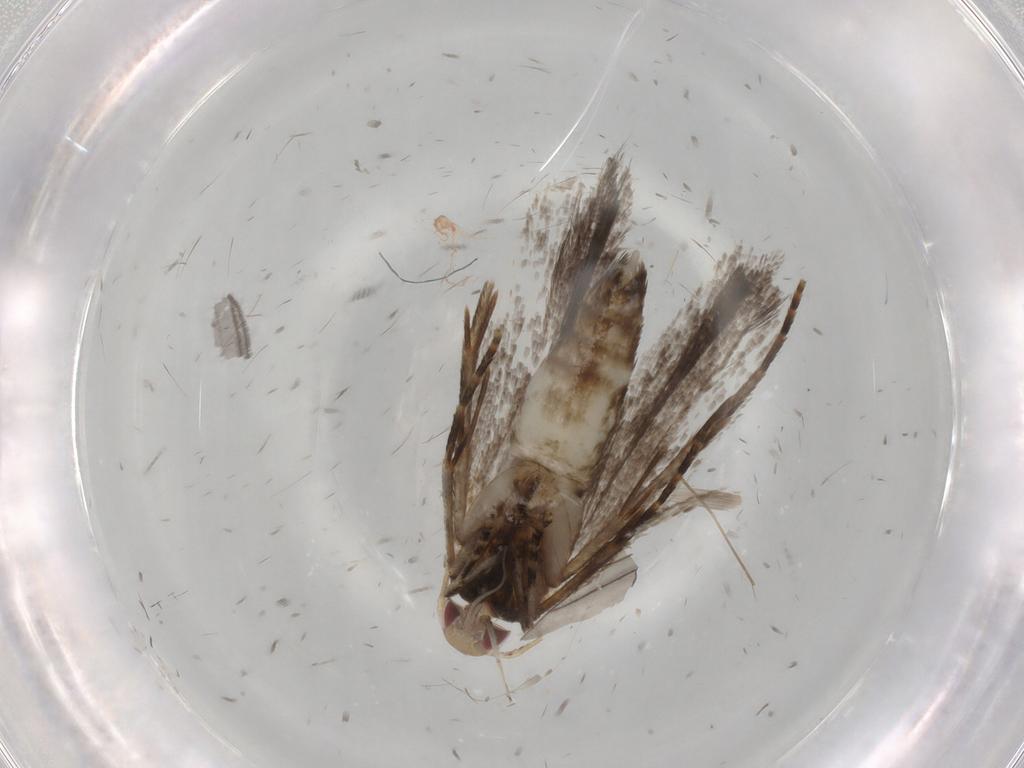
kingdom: Animalia
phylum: Arthropoda
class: Insecta
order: Lepidoptera
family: Gelechiidae
